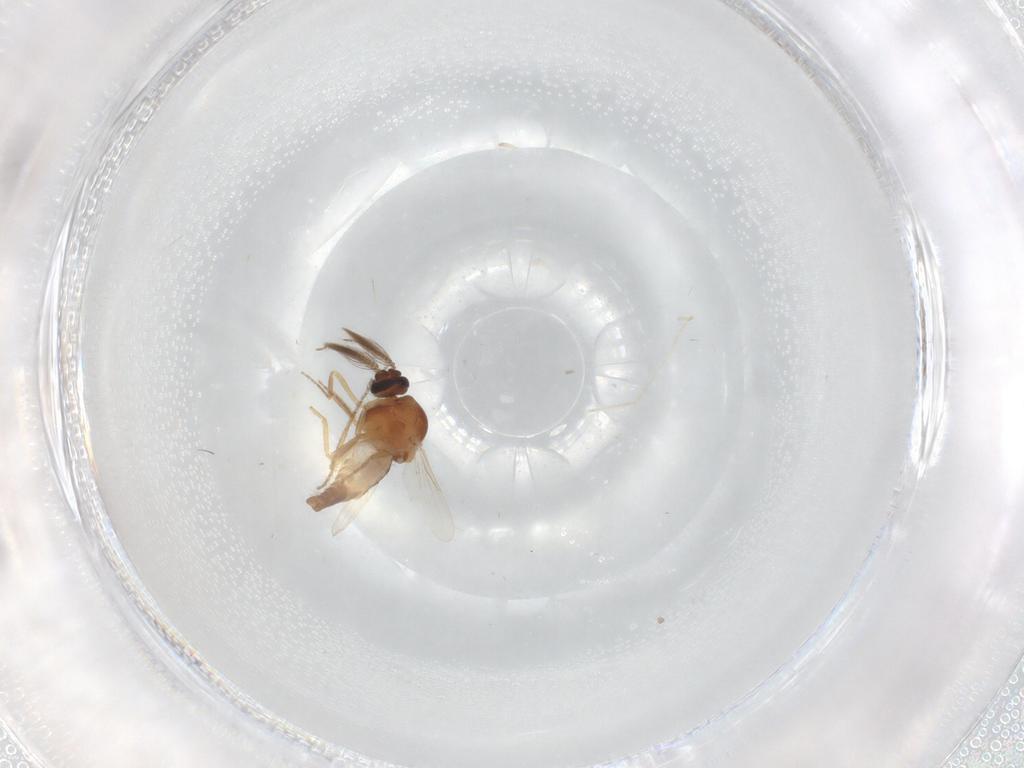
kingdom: Animalia
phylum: Arthropoda
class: Insecta
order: Diptera
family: Ceratopogonidae
